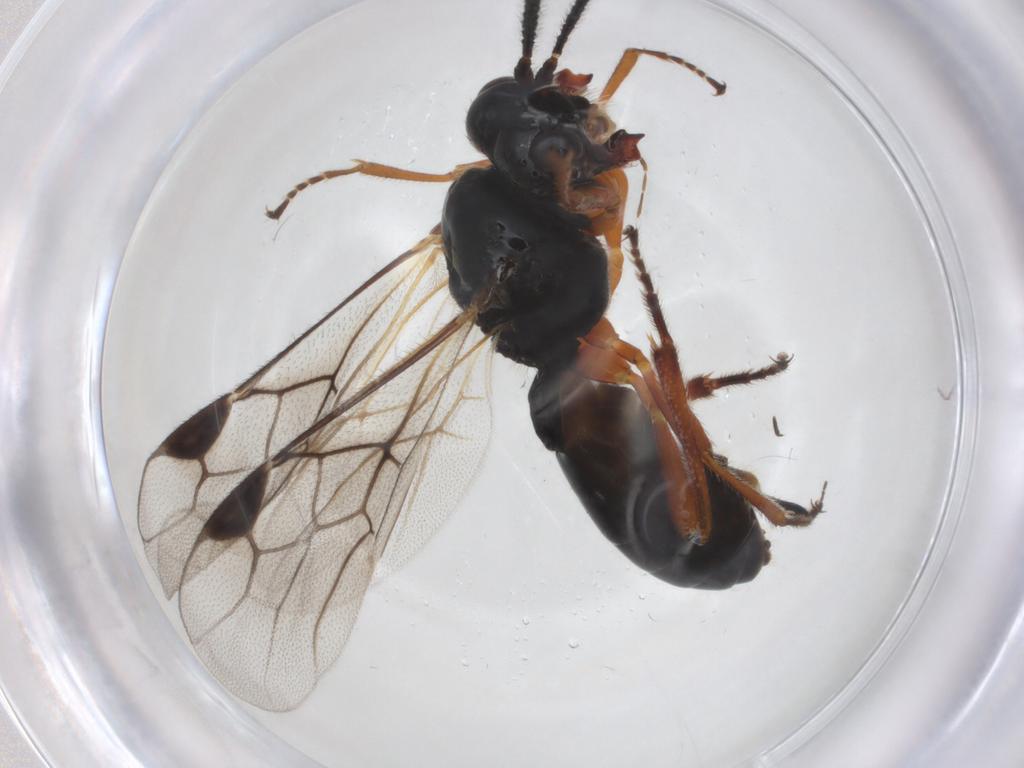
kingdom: Animalia
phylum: Arthropoda
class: Insecta
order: Hymenoptera
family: Braconidae
